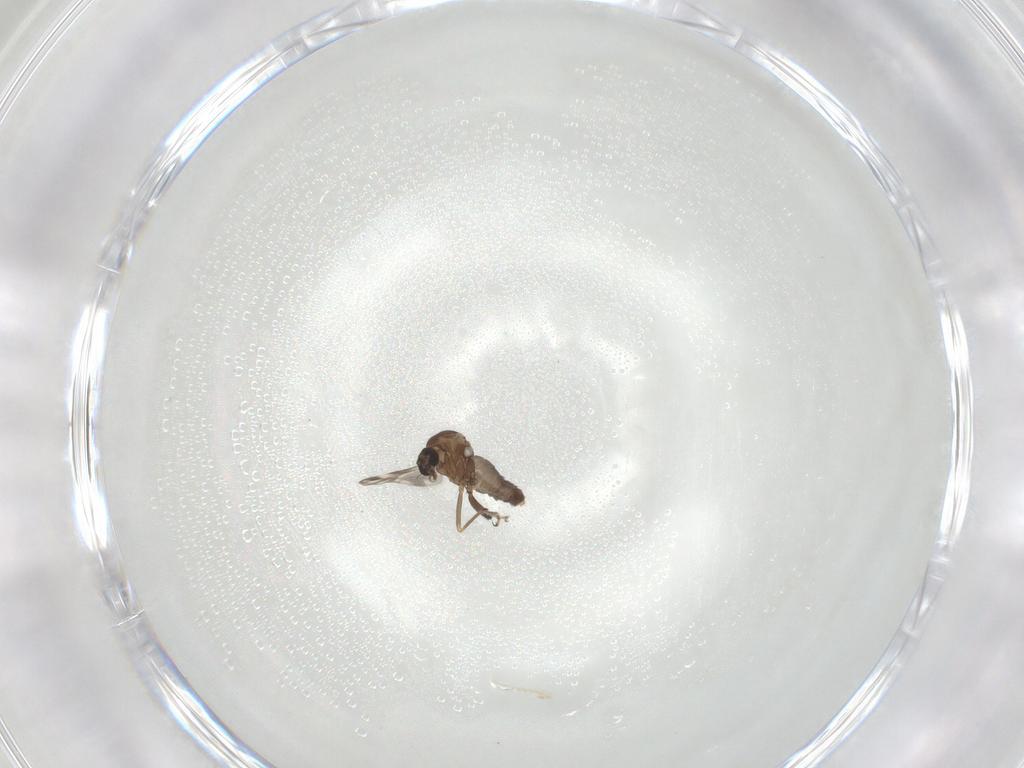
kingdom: Animalia
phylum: Arthropoda
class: Insecta
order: Diptera
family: Ceratopogonidae
